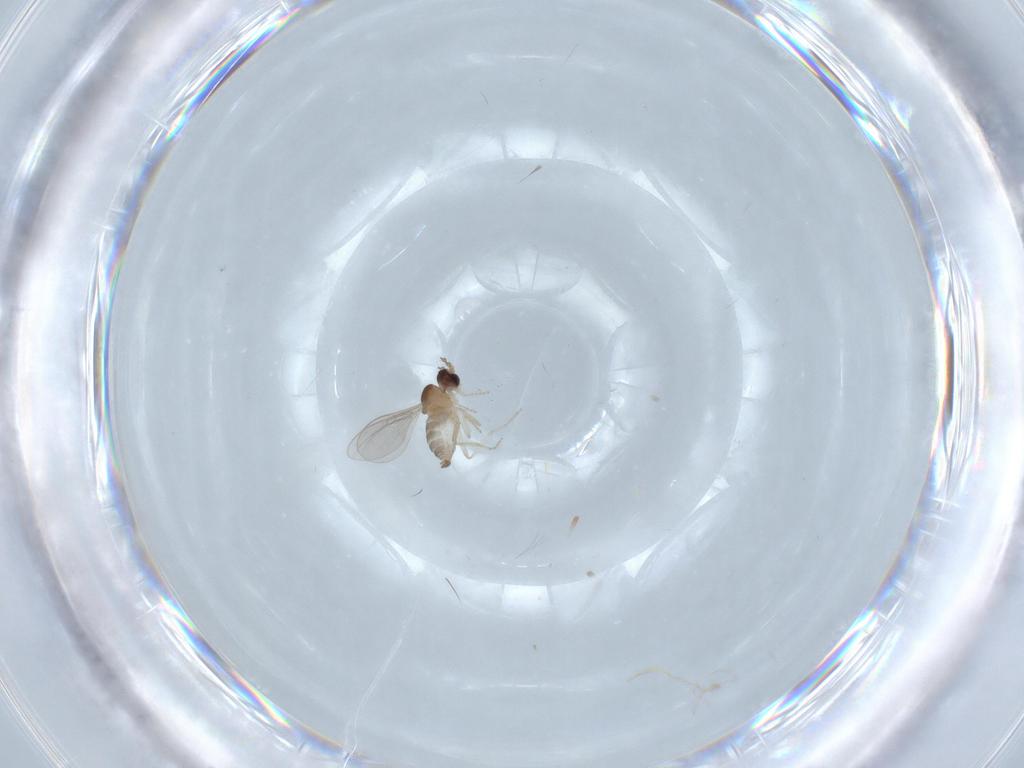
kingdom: Animalia
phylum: Arthropoda
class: Insecta
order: Diptera
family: Cecidomyiidae
